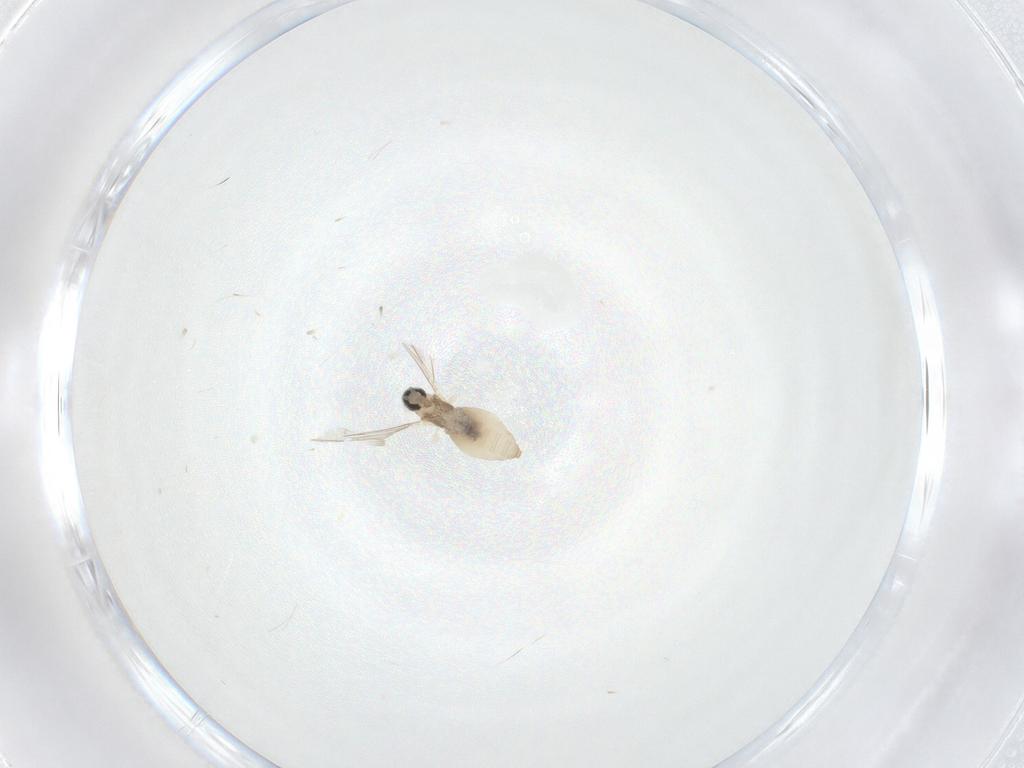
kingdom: Animalia
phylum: Arthropoda
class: Insecta
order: Diptera
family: Cecidomyiidae
